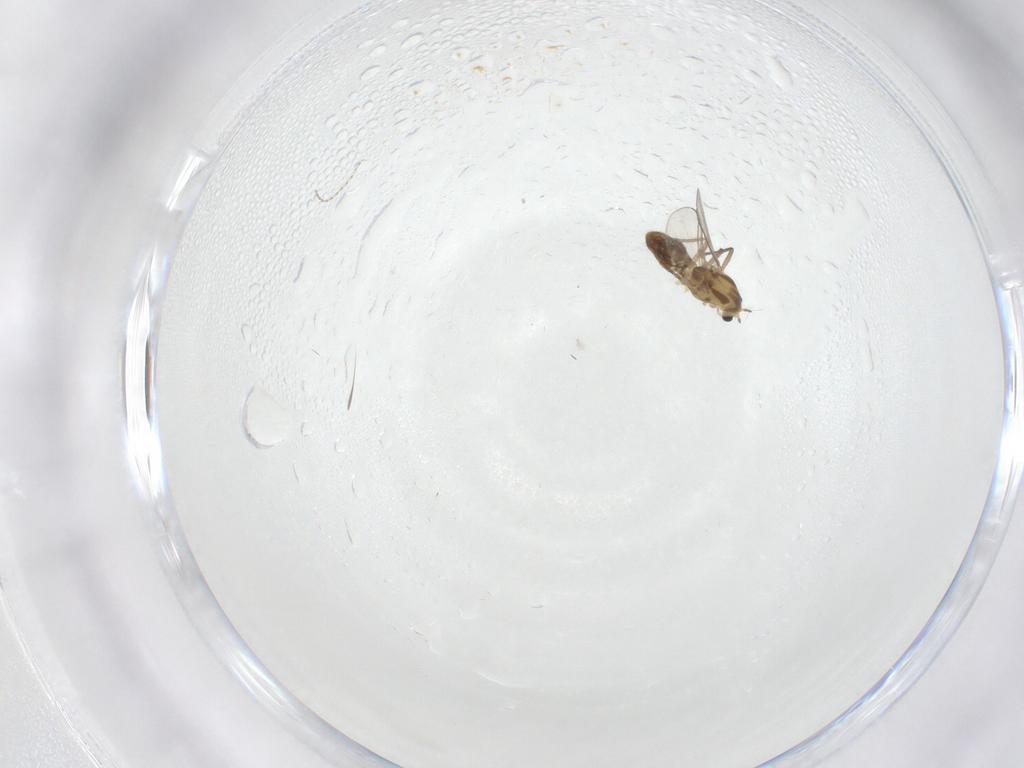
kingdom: Animalia
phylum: Arthropoda
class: Insecta
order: Diptera
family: Chironomidae
